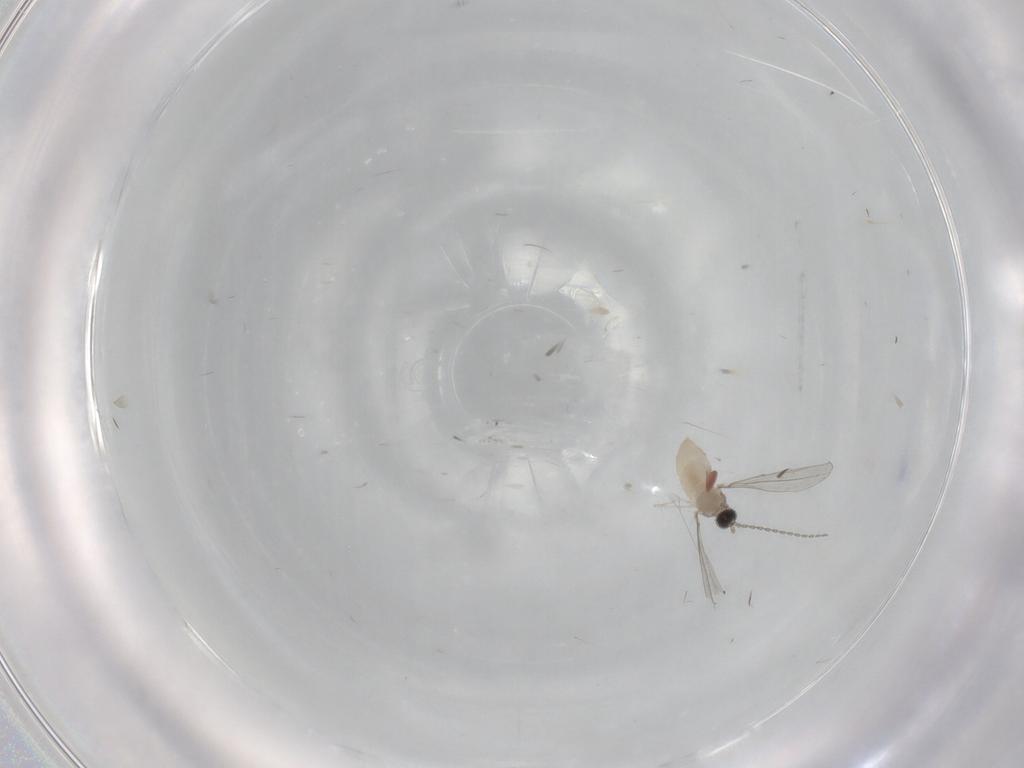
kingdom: Animalia
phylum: Arthropoda
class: Insecta
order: Diptera
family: Cecidomyiidae
